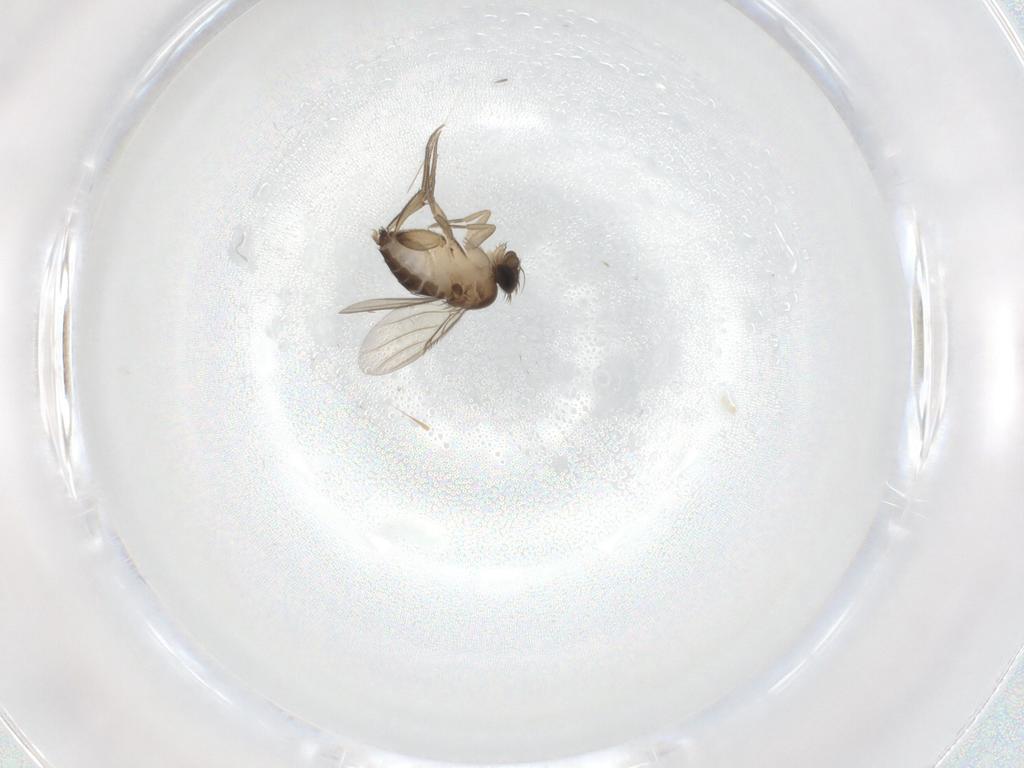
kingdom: Animalia
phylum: Arthropoda
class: Insecta
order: Diptera
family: Phoridae
